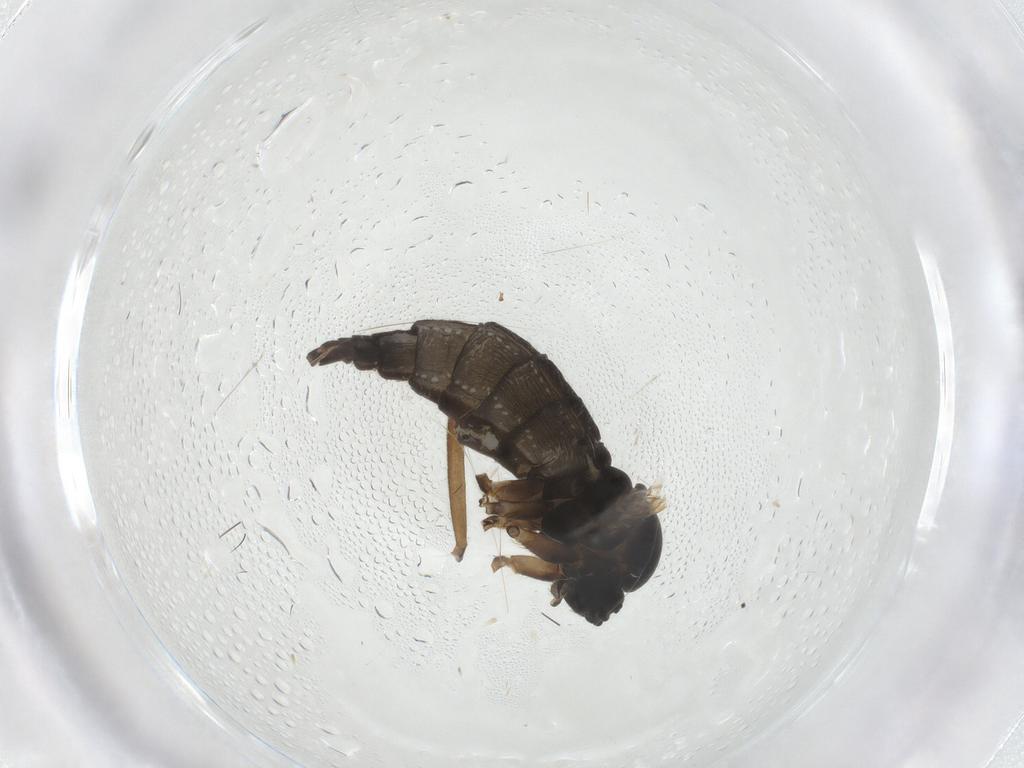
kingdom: Animalia
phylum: Arthropoda
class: Insecta
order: Diptera
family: Sciaridae
